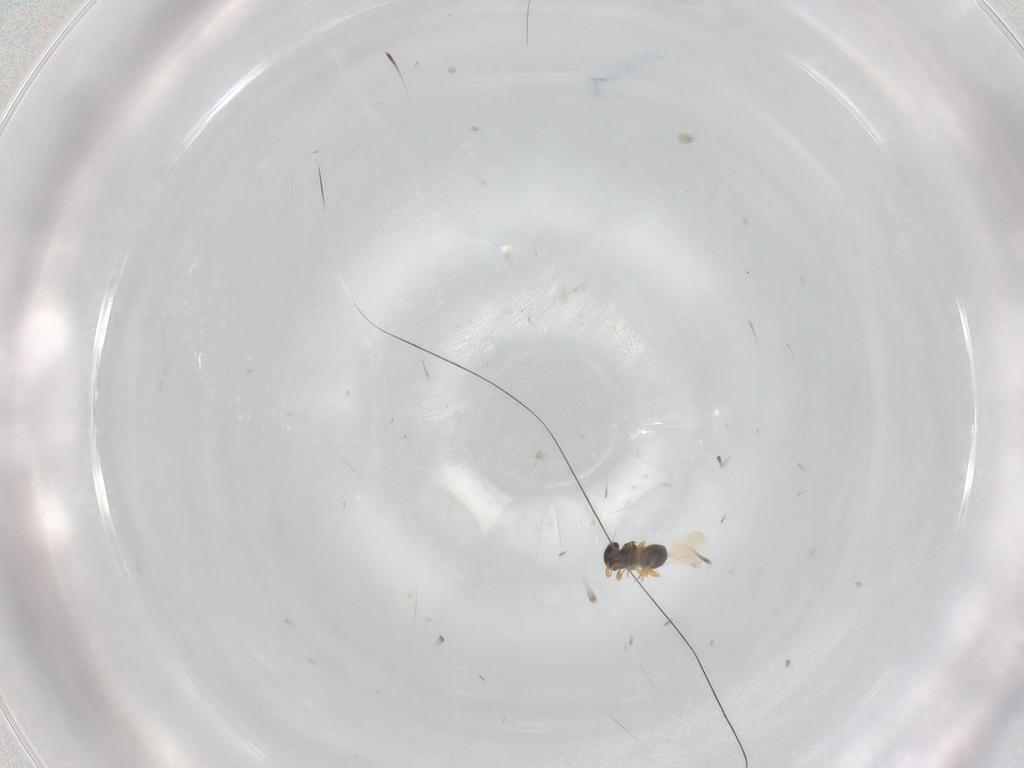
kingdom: Animalia
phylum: Arthropoda
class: Insecta
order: Hymenoptera
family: Platygastridae
